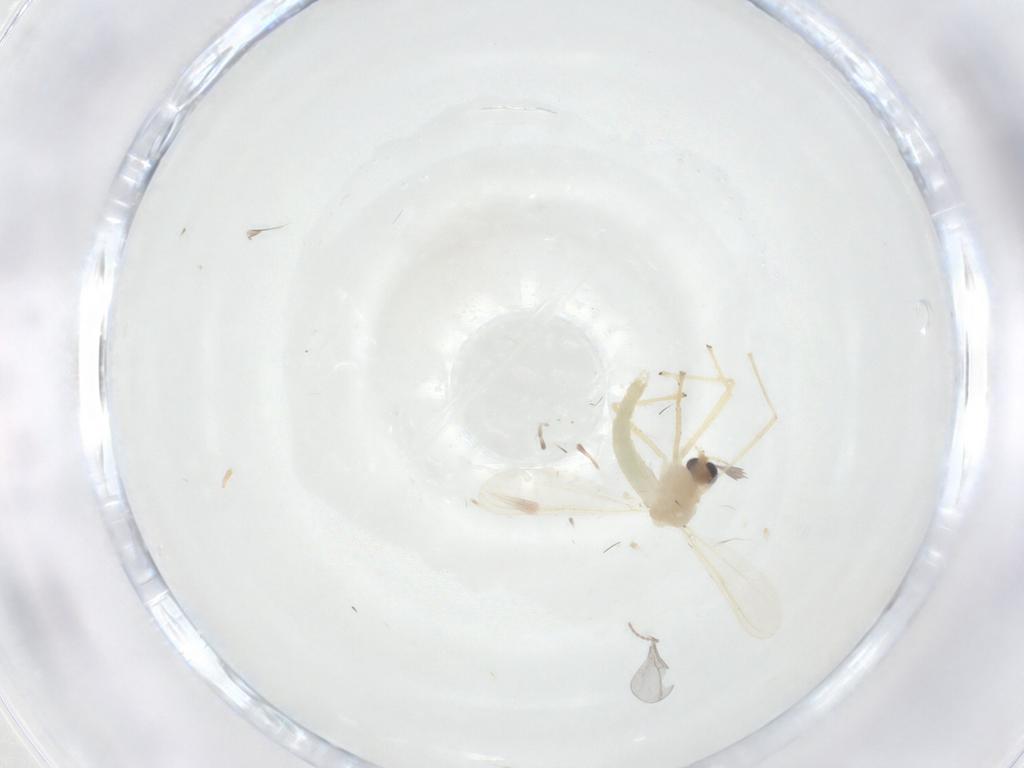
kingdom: Animalia
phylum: Arthropoda
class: Insecta
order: Diptera
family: Chironomidae
